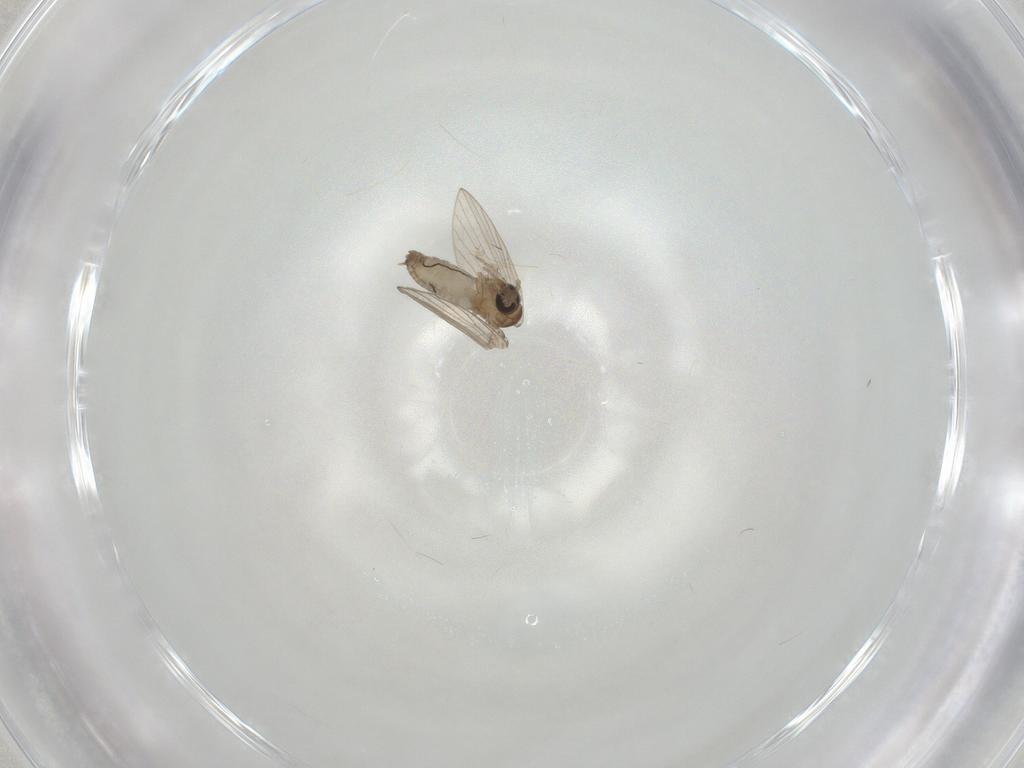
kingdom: Animalia
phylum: Arthropoda
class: Insecta
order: Diptera
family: Psychodidae
